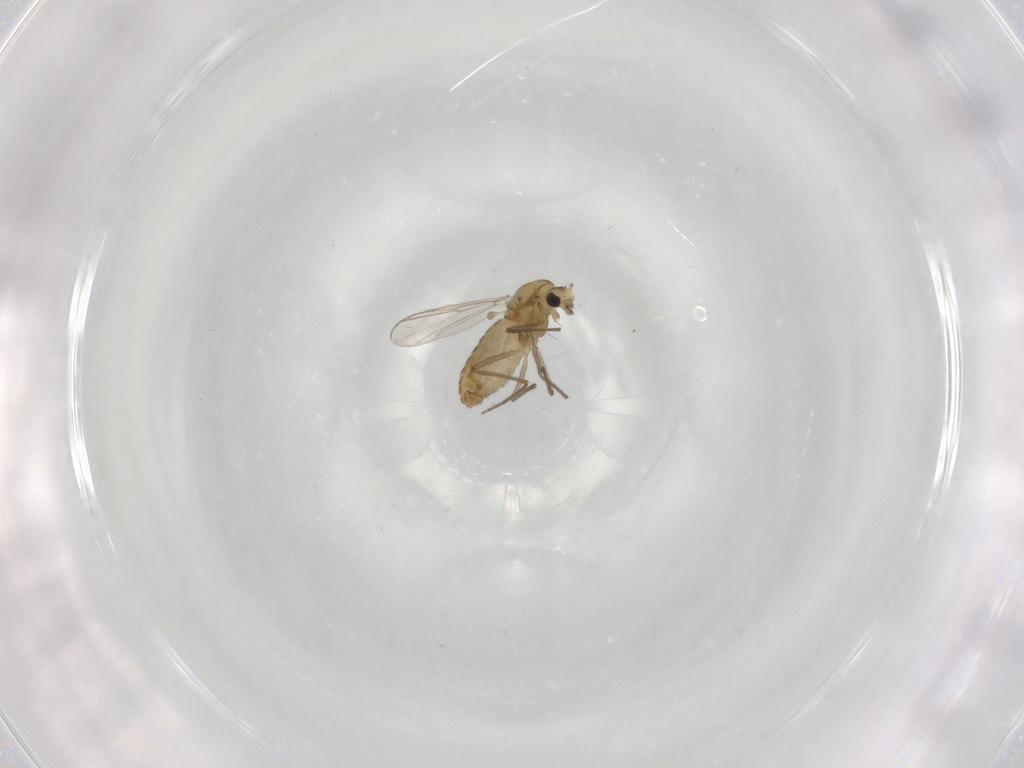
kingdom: Animalia
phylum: Arthropoda
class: Insecta
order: Diptera
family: Chironomidae
